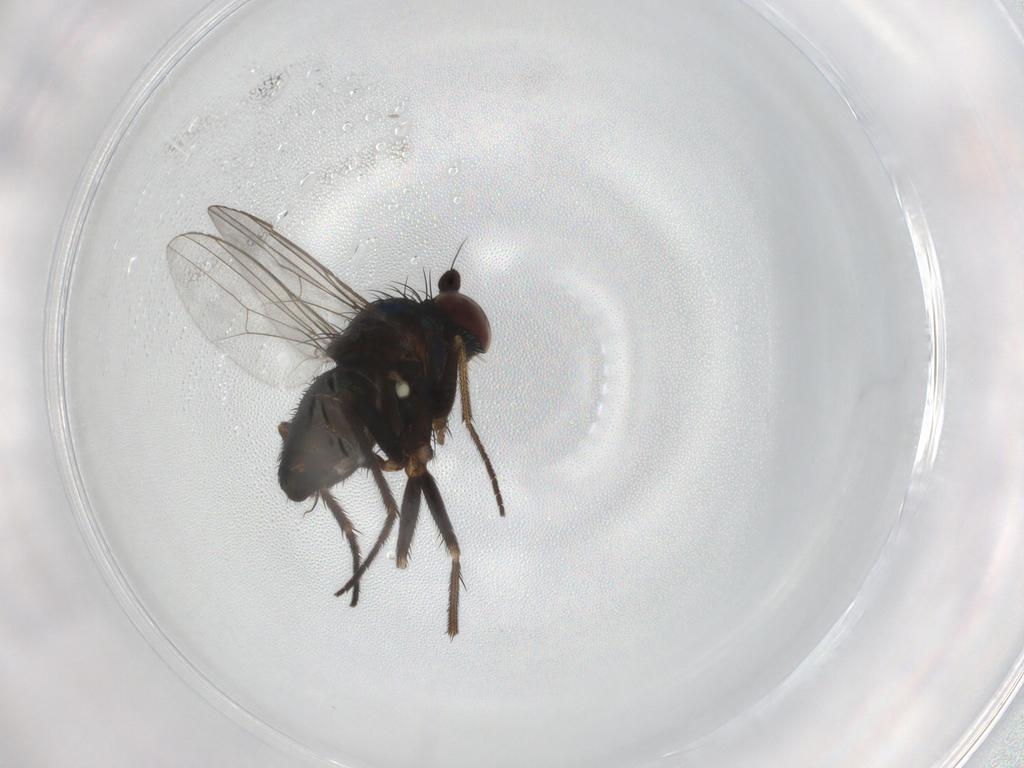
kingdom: Animalia
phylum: Arthropoda
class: Insecta
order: Diptera
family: Dolichopodidae
